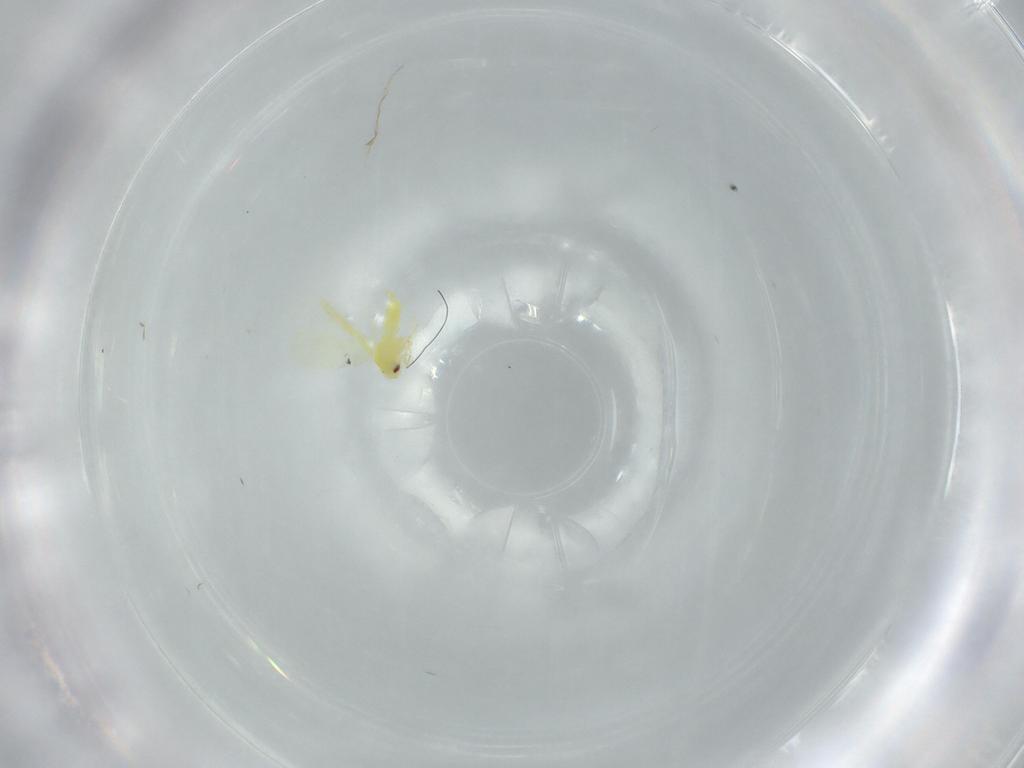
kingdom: Animalia
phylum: Arthropoda
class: Insecta
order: Hemiptera
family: Aleyrodidae
